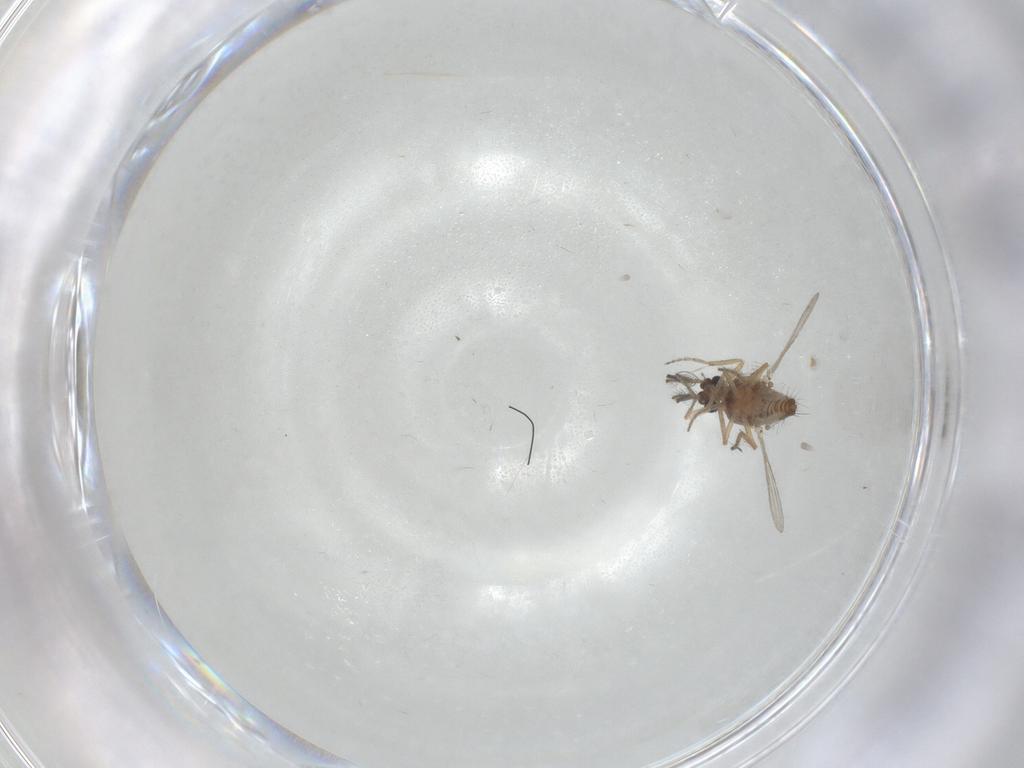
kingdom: Animalia
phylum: Arthropoda
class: Insecta
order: Diptera
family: Ceratopogonidae
